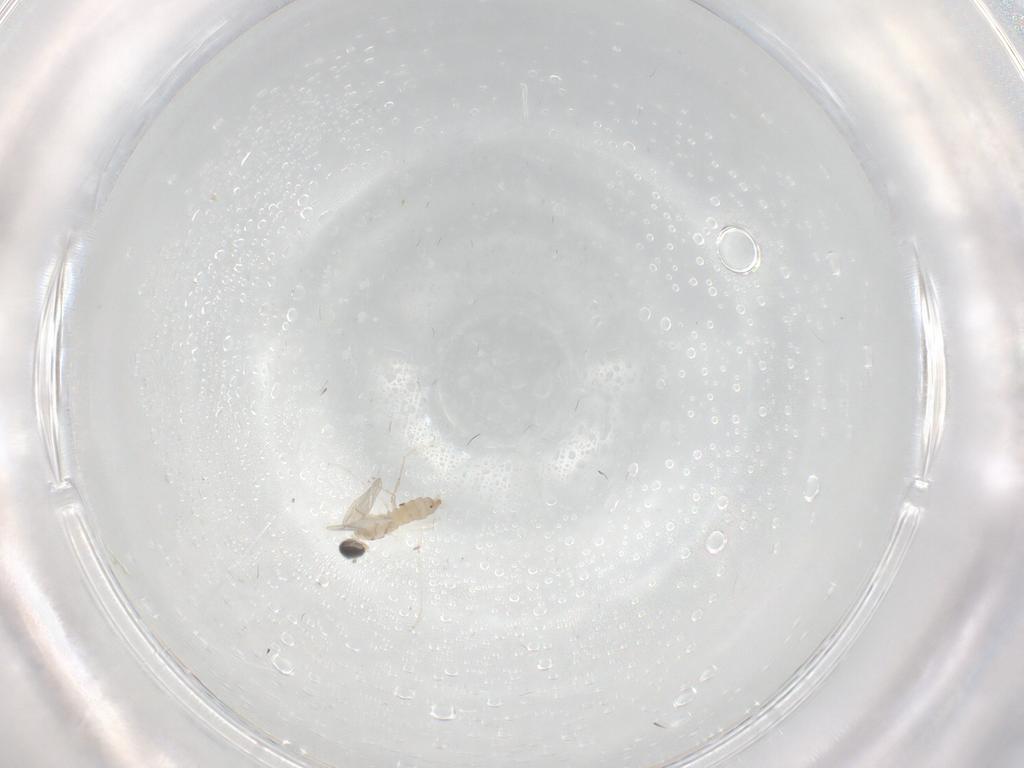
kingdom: Animalia
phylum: Arthropoda
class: Insecta
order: Diptera
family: Cecidomyiidae
